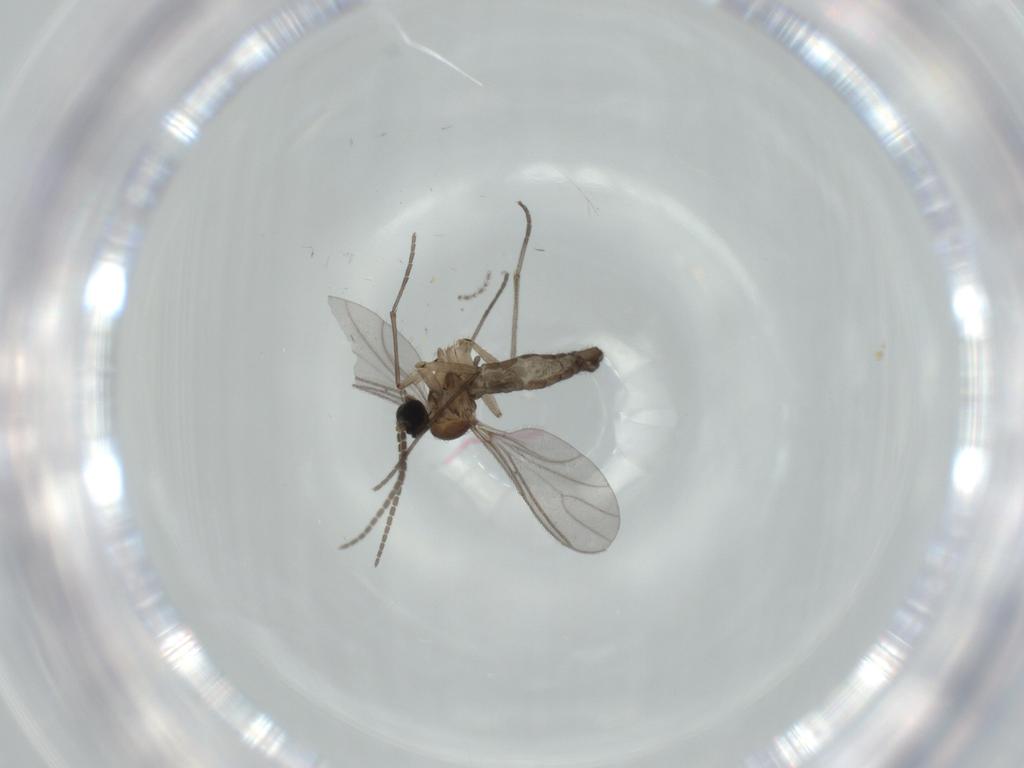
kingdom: Animalia
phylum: Arthropoda
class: Insecta
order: Diptera
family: Sciaridae
